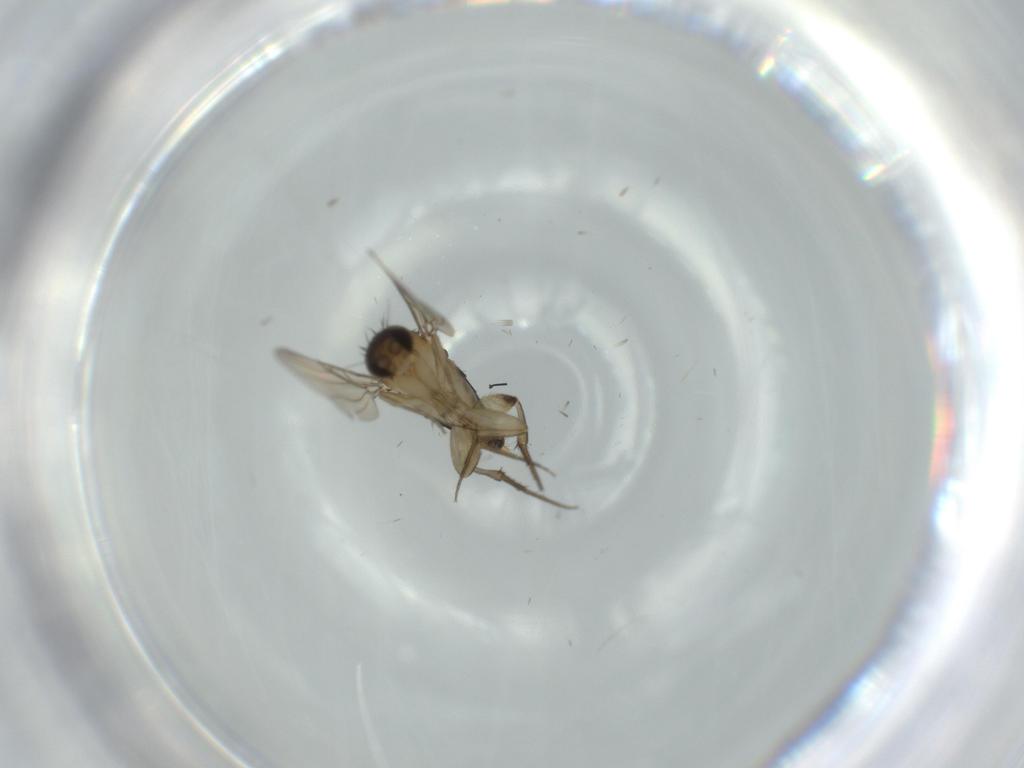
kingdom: Animalia
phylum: Arthropoda
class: Insecta
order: Diptera
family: Phoridae
